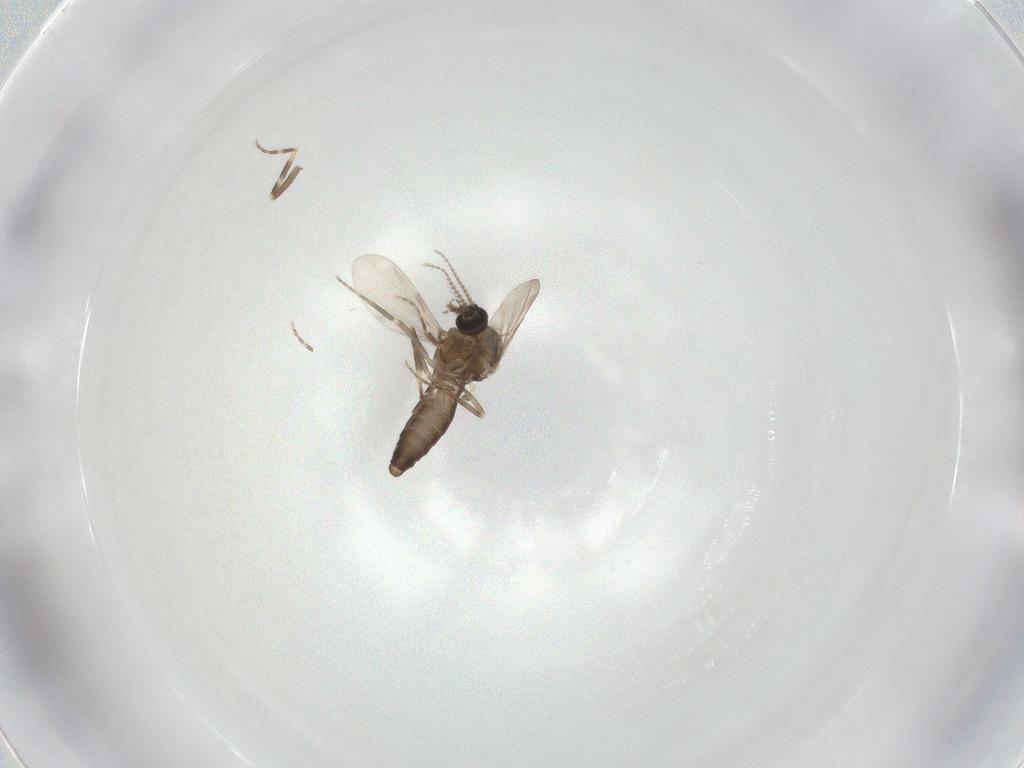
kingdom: Animalia
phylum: Arthropoda
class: Insecta
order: Diptera
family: Ceratopogonidae
